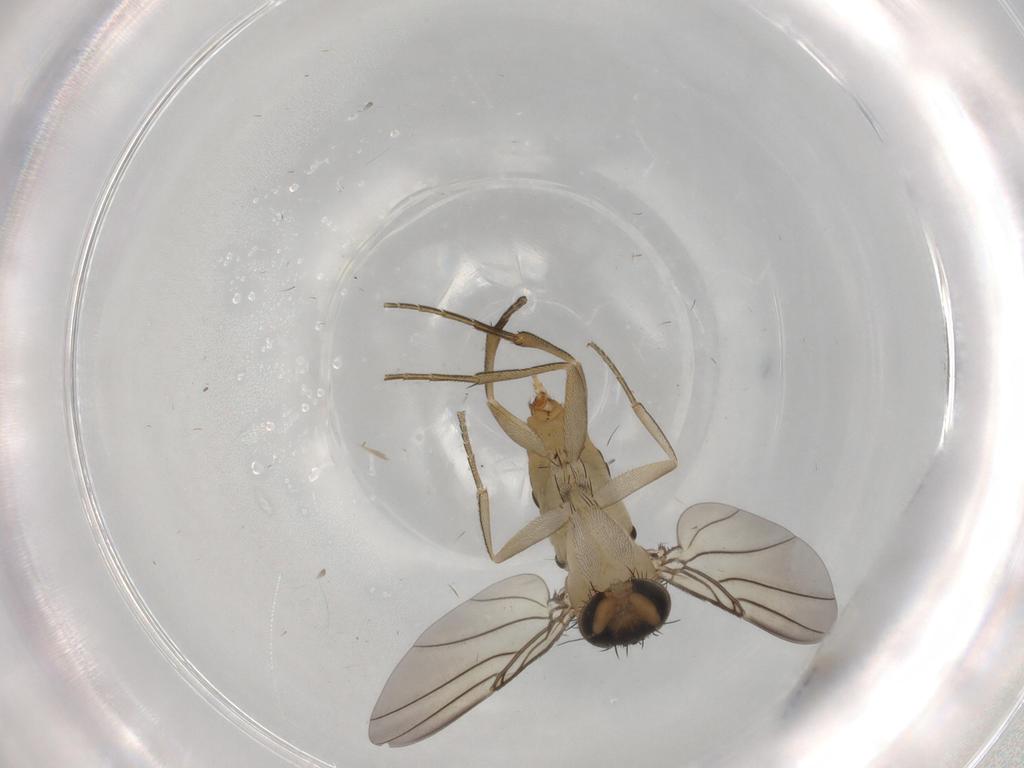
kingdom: Animalia
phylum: Arthropoda
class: Insecta
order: Diptera
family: Phoridae
